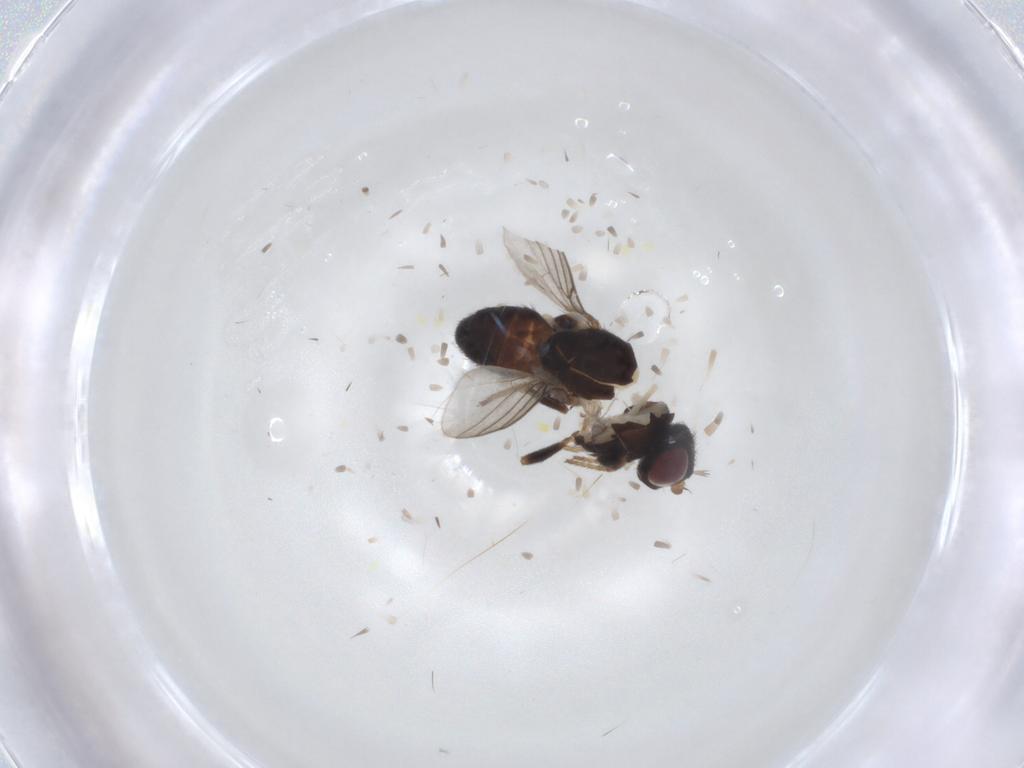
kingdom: Animalia
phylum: Arthropoda
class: Insecta
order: Diptera
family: Chloropidae
